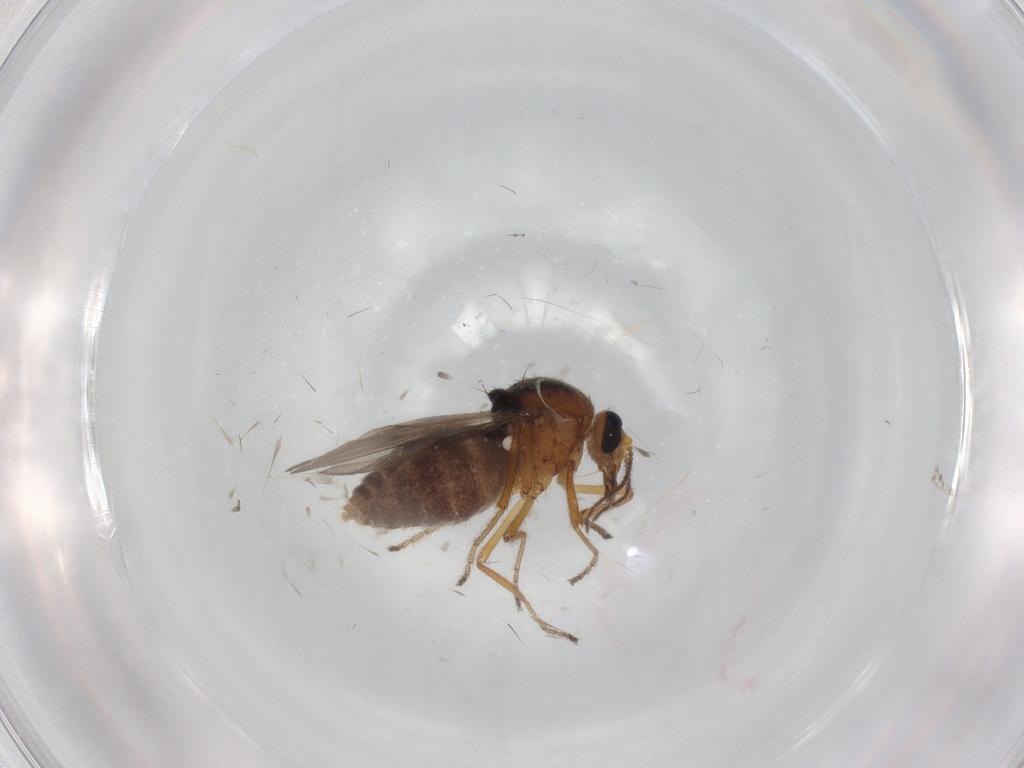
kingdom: Animalia
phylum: Arthropoda
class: Insecta
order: Diptera
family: Ceratopogonidae
